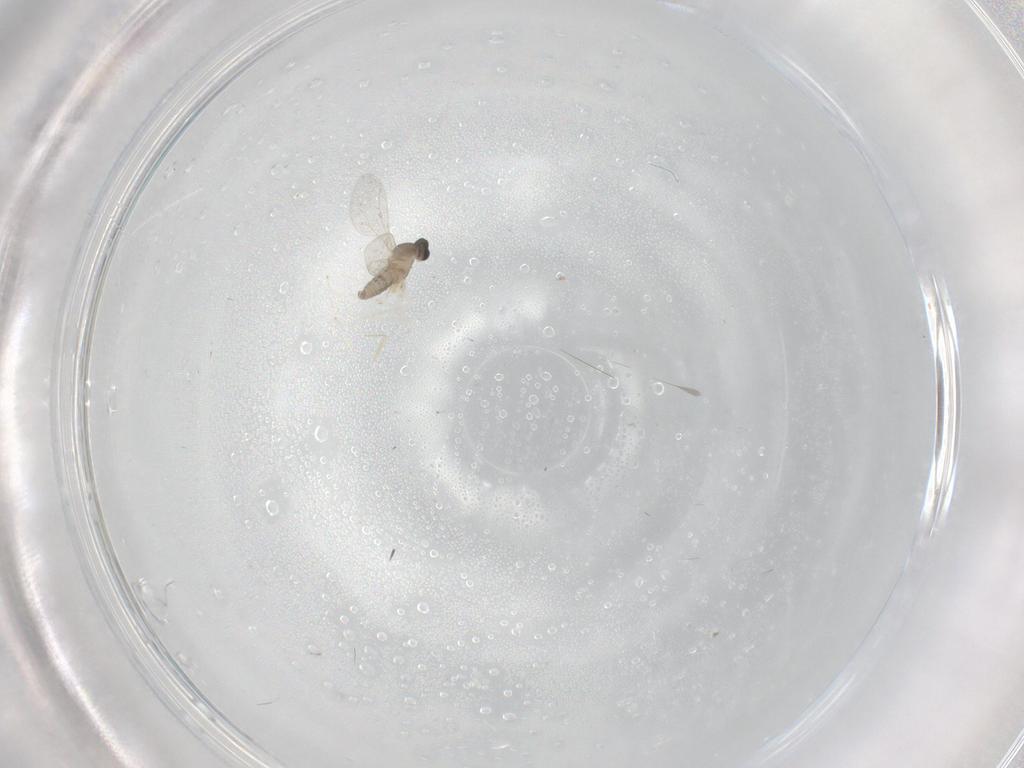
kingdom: Animalia
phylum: Arthropoda
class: Insecta
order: Diptera
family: Cecidomyiidae
